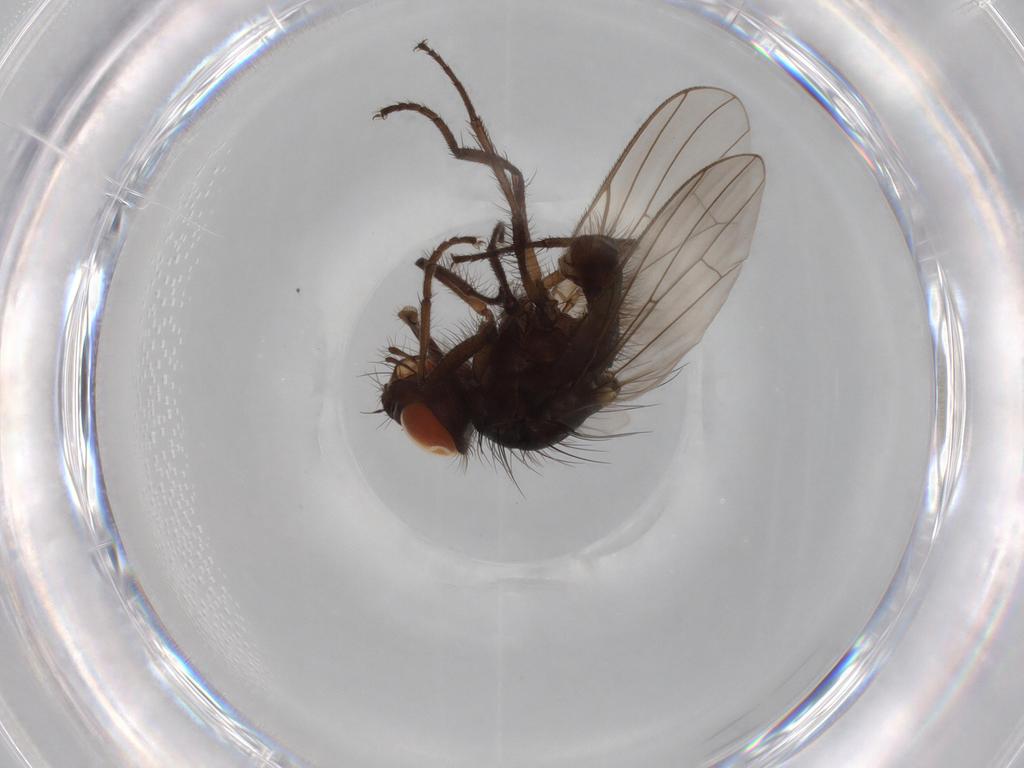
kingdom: Animalia
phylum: Arthropoda
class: Insecta
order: Diptera
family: Anthomyiidae
